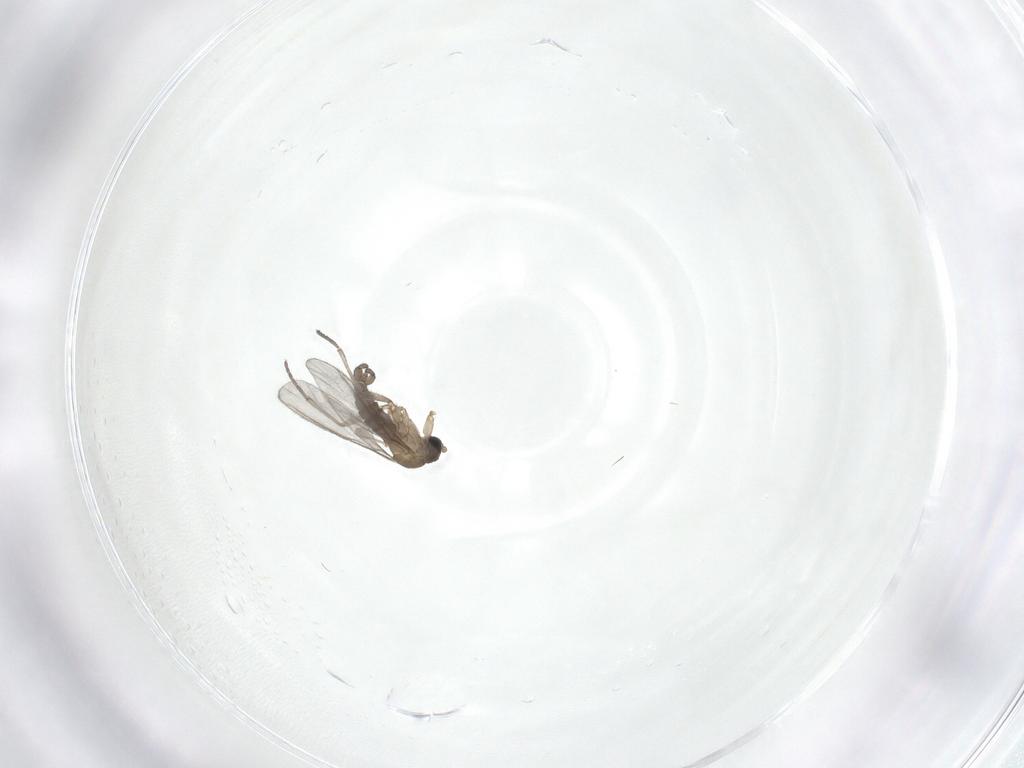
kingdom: Animalia
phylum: Arthropoda
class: Insecta
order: Diptera
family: Sciaridae
